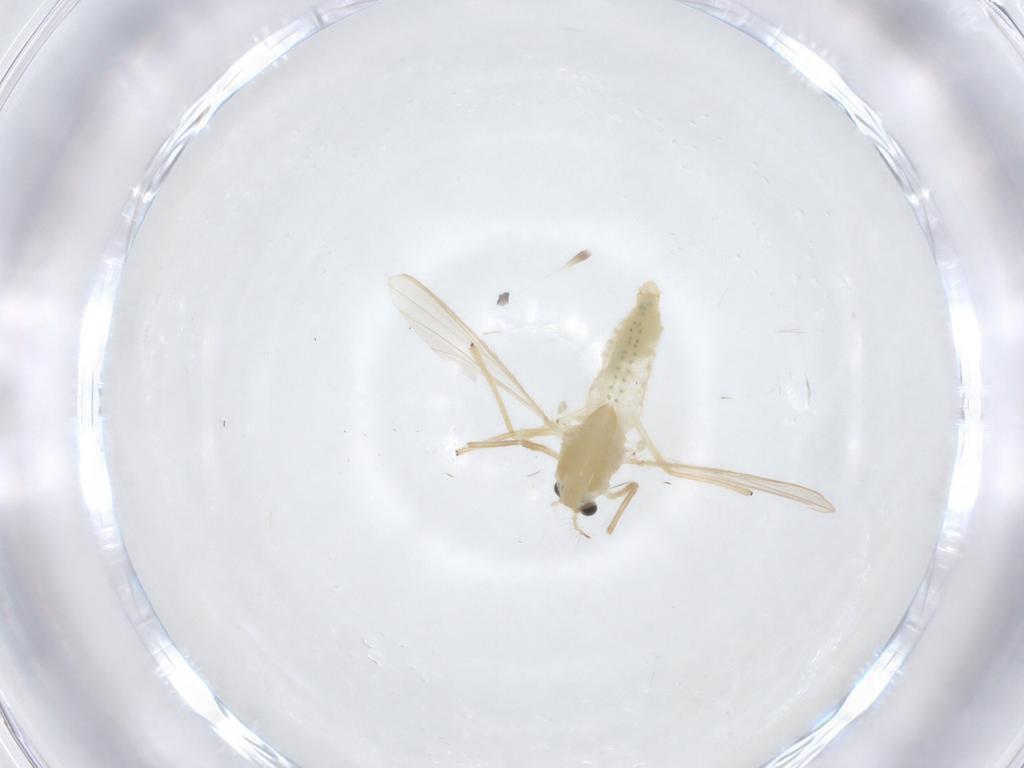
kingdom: Animalia
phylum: Arthropoda
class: Insecta
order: Diptera
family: Chironomidae
